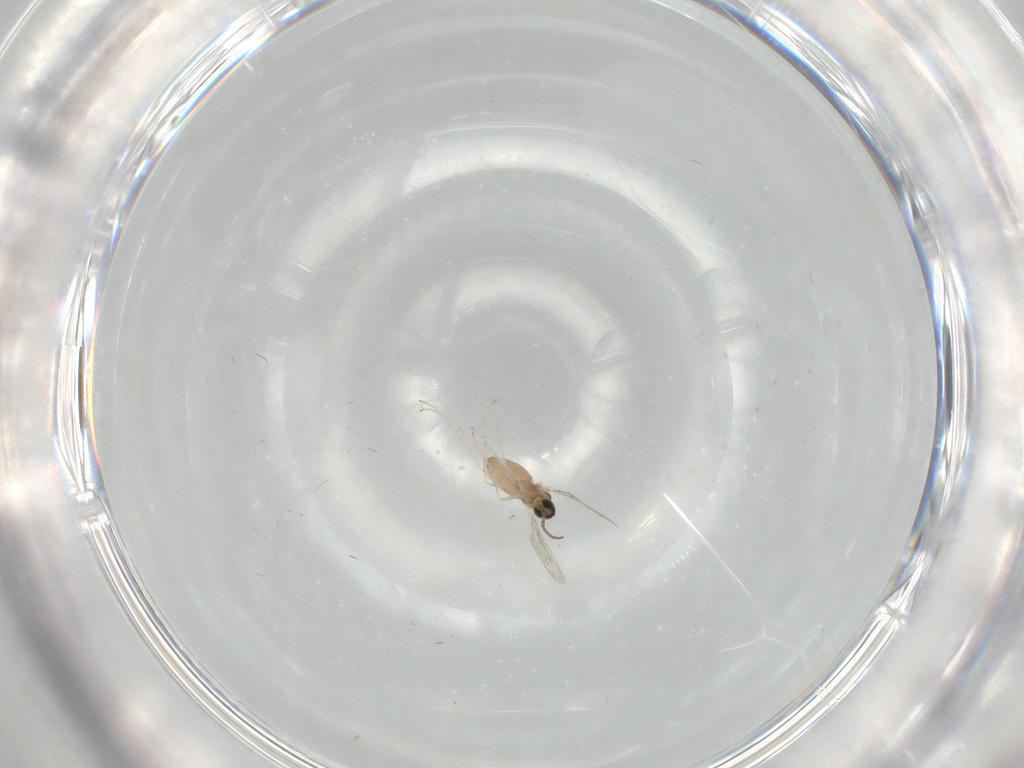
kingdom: Animalia
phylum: Arthropoda
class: Insecta
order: Diptera
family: Cecidomyiidae
